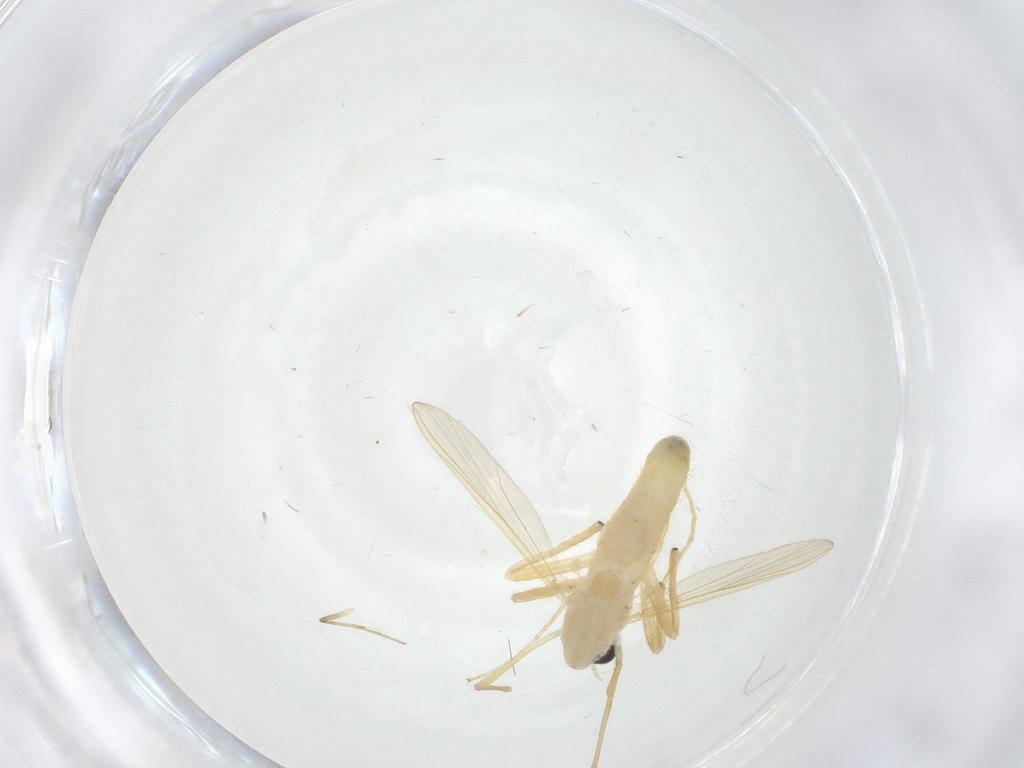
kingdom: Animalia
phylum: Arthropoda
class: Insecta
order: Diptera
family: Chironomidae
